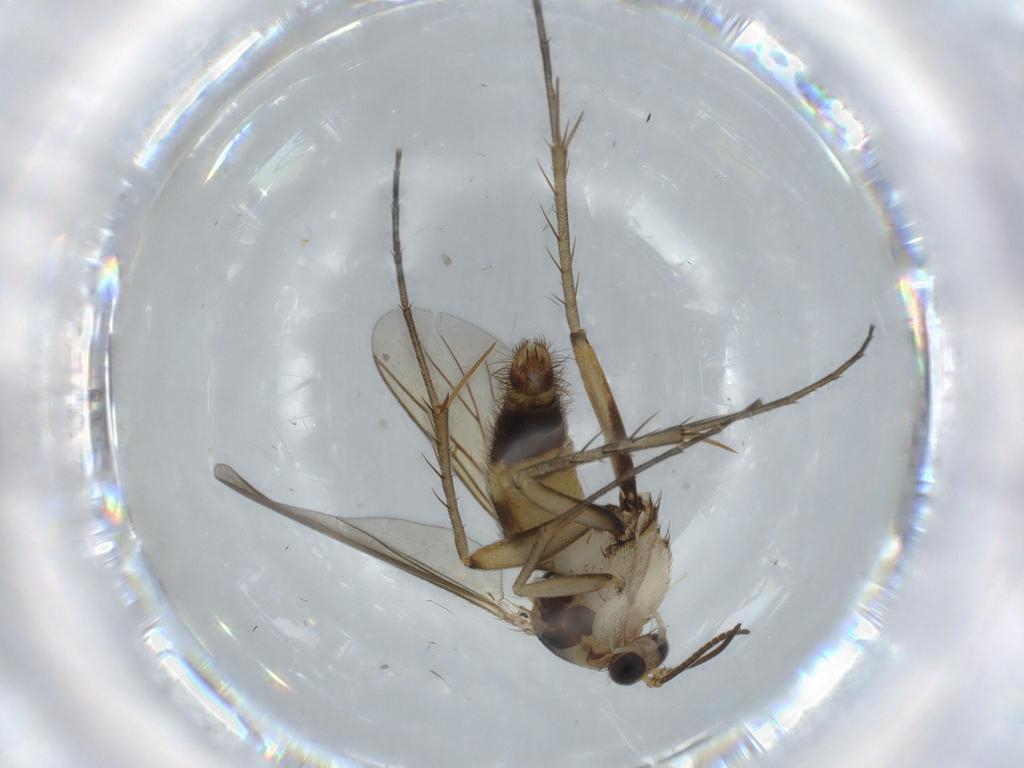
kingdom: Animalia
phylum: Arthropoda
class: Insecta
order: Diptera
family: Mycetophilidae
